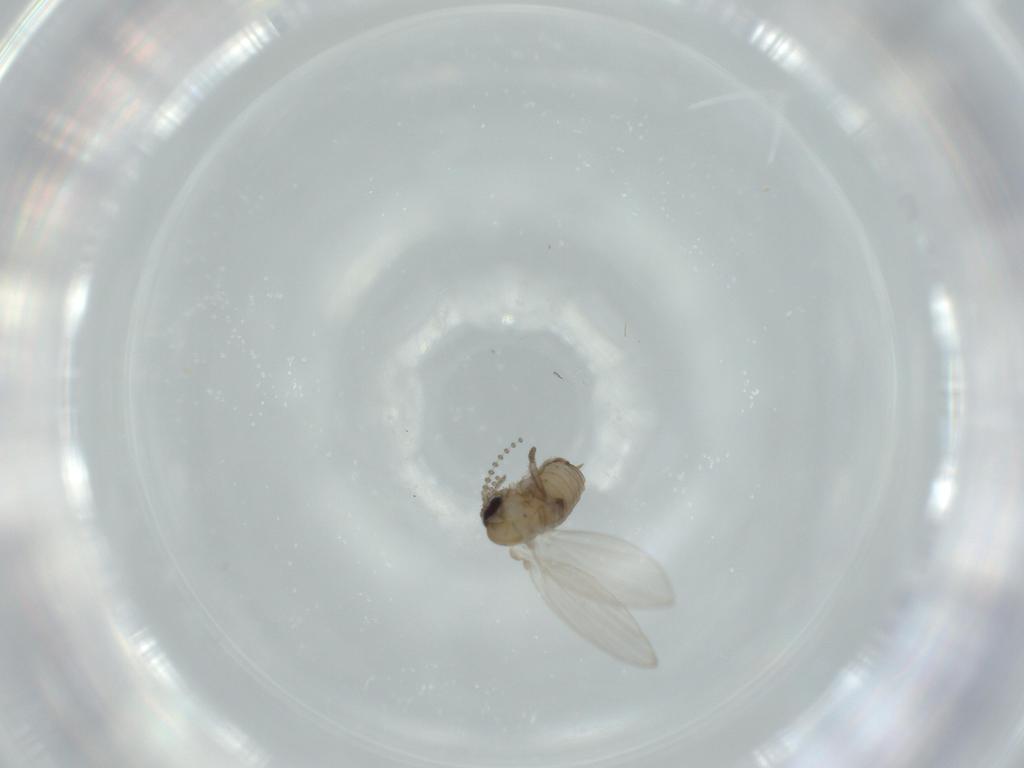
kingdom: Animalia
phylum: Arthropoda
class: Insecta
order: Diptera
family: Psychodidae
